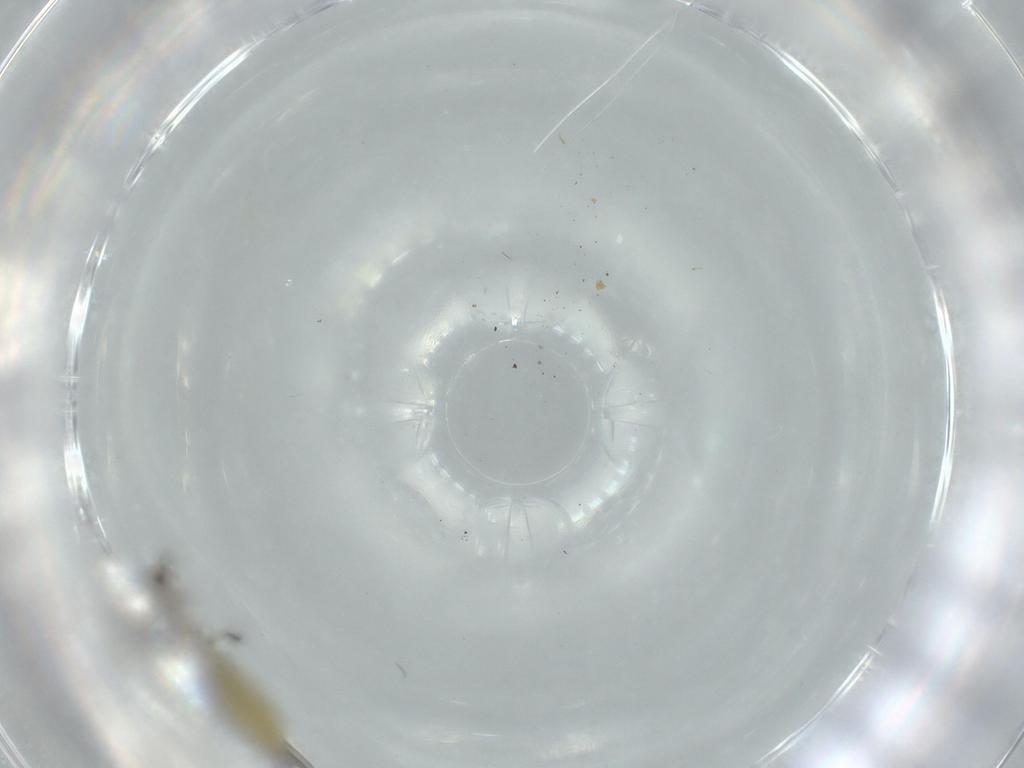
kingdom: Animalia
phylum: Arthropoda
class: Insecta
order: Diptera
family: Sciaridae
